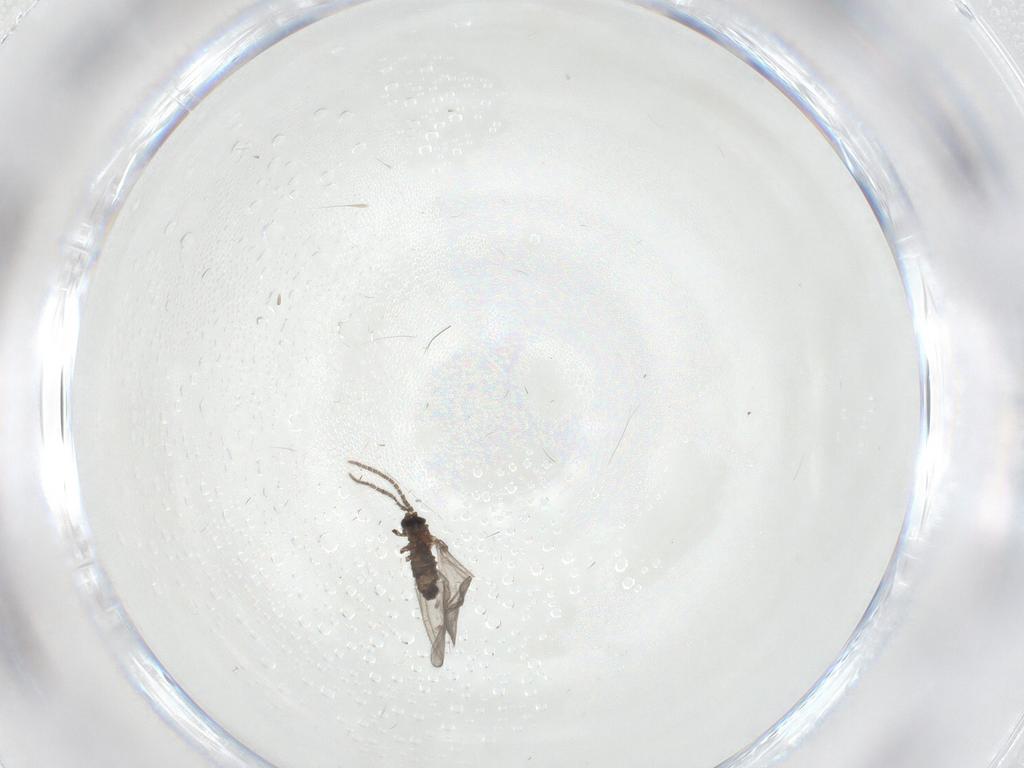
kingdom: Animalia
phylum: Arthropoda
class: Insecta
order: Diptera
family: Sciaridae
